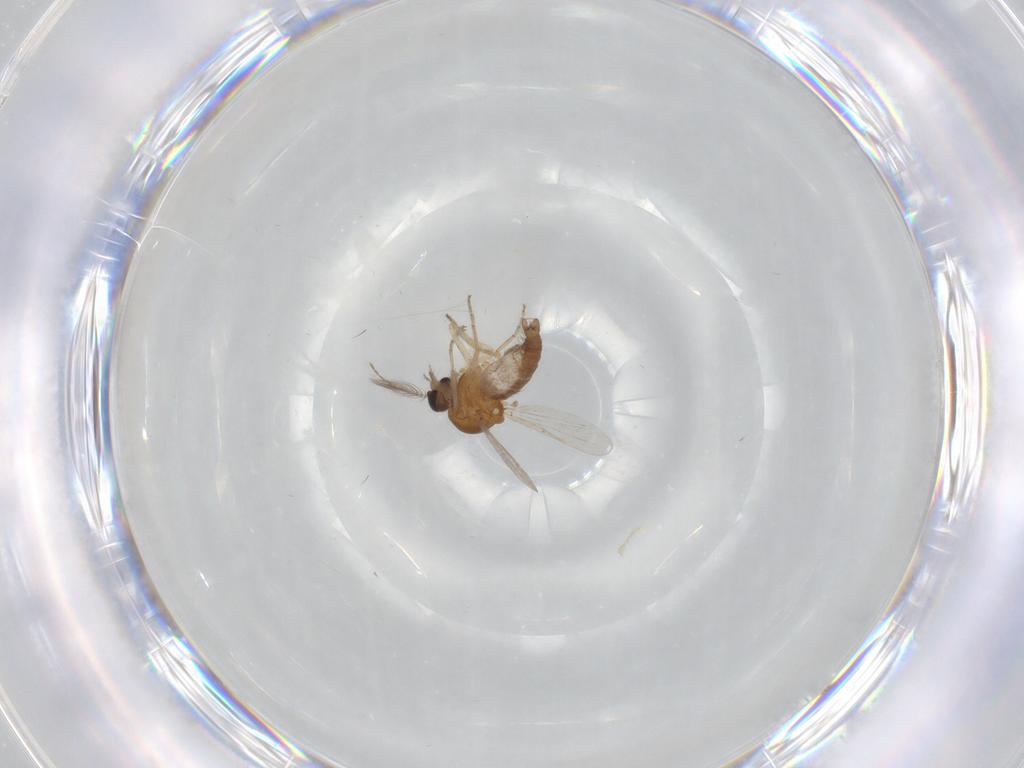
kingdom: Animalia
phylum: Arthropoda
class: Insecta
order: Diptera
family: Ceratopogonidae
